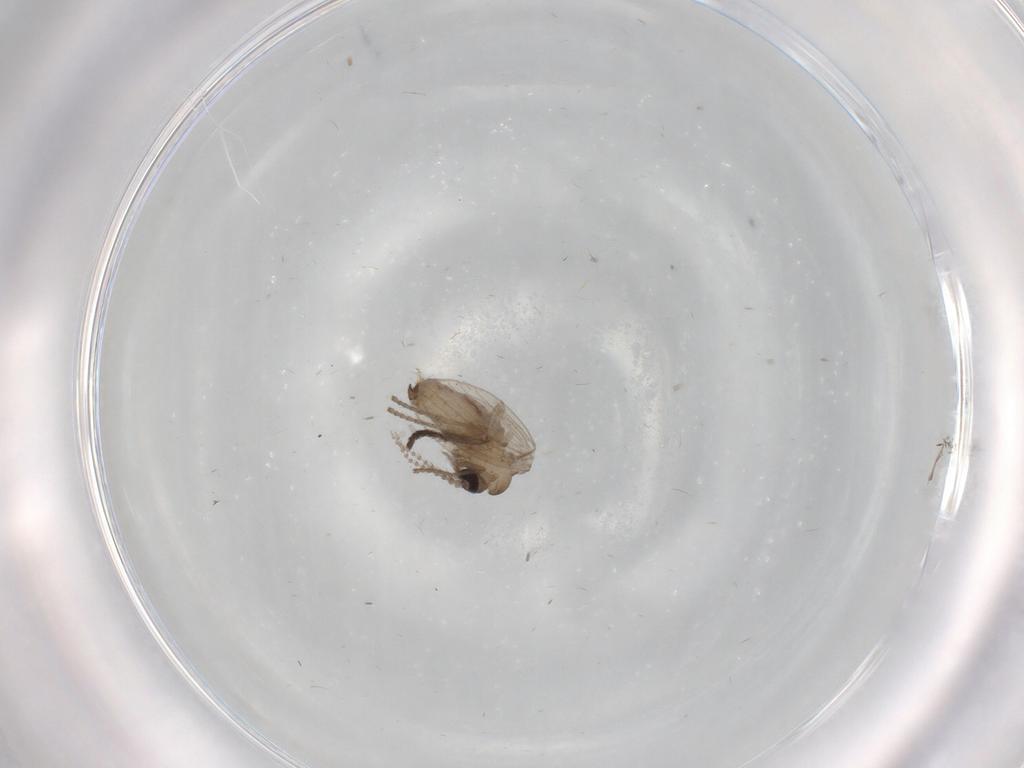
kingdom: Animalia
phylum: Arthropoda
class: Insecta
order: Diptera
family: Psychodidae
